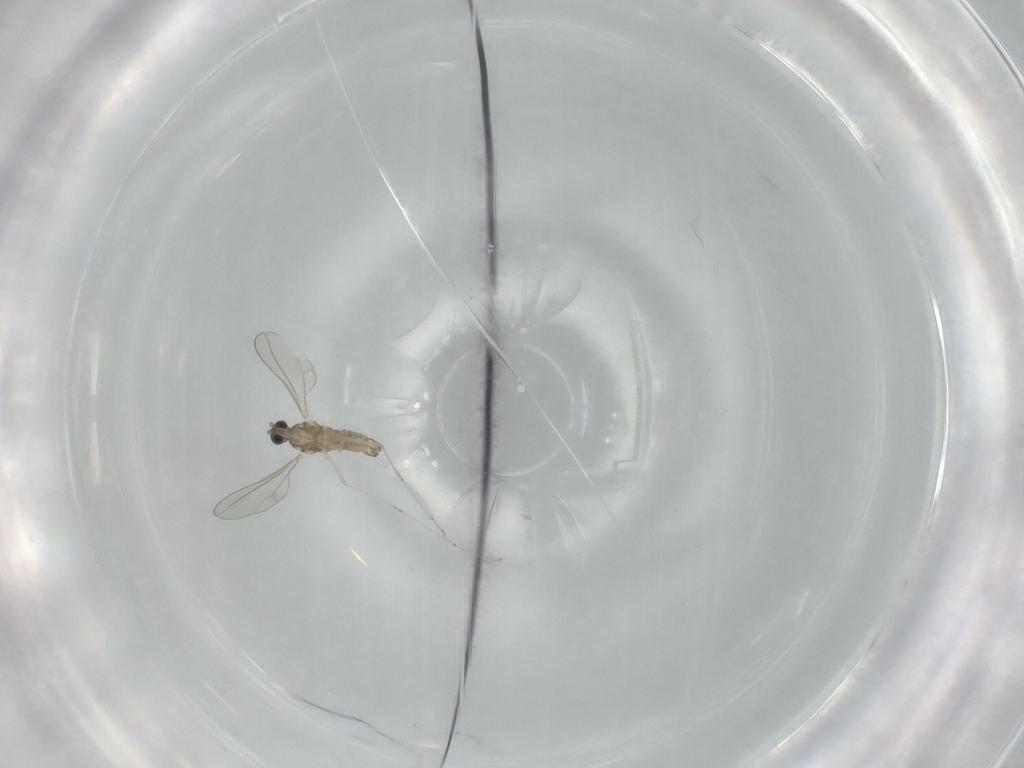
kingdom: Animalia
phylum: Arthropoda
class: Insecta
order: Diptera
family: Cecidomyiidae
